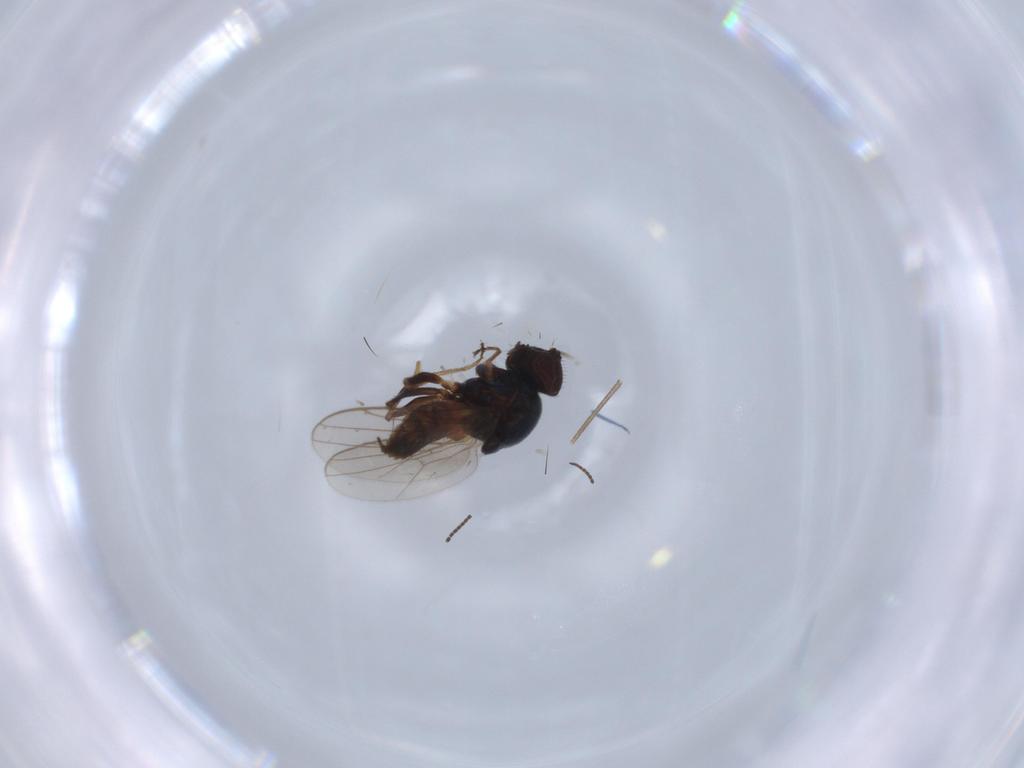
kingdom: Animalia
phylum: Arthropoda
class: Insecta
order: Diptera
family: Chloropidae
